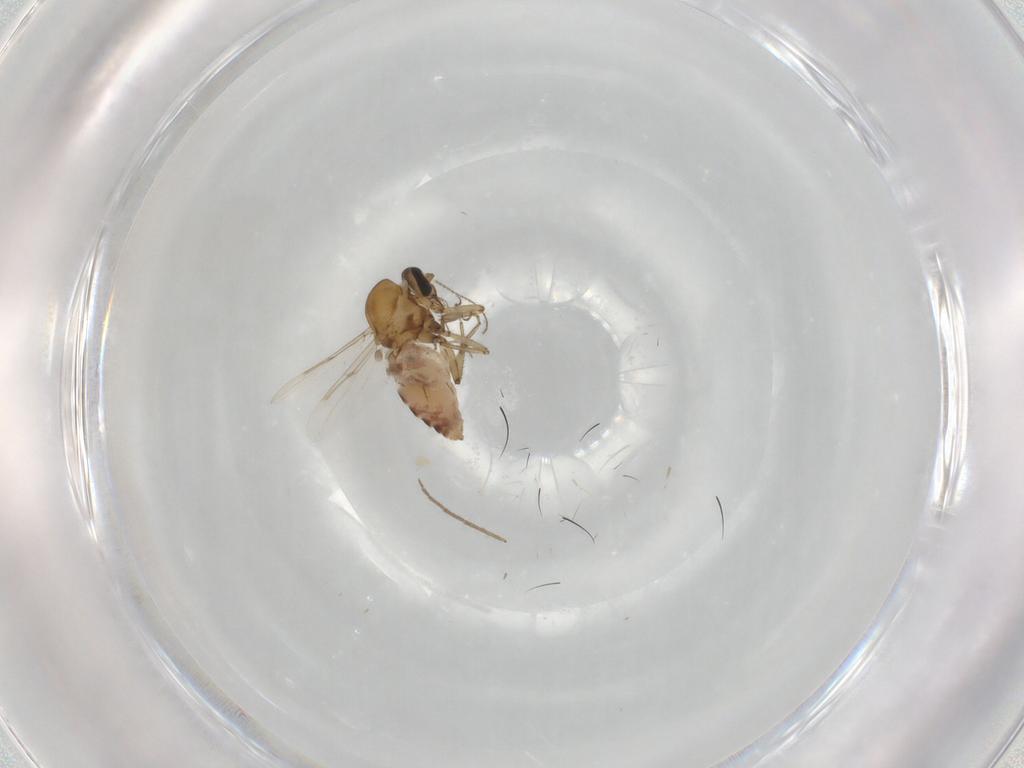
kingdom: Animalia
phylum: Arthropoda
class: Insecta
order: Diptera
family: Ceratopogonidae
